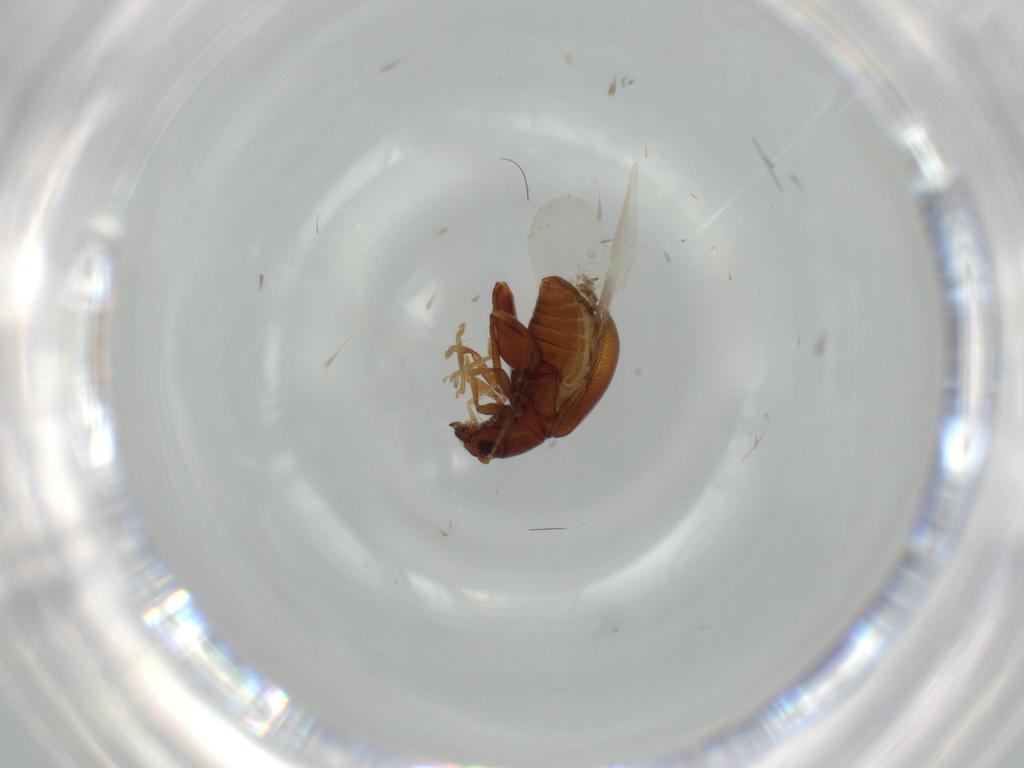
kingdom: Animalia
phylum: Arthropoda
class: Insecta
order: Coleoptera
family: Chrysomelidae
